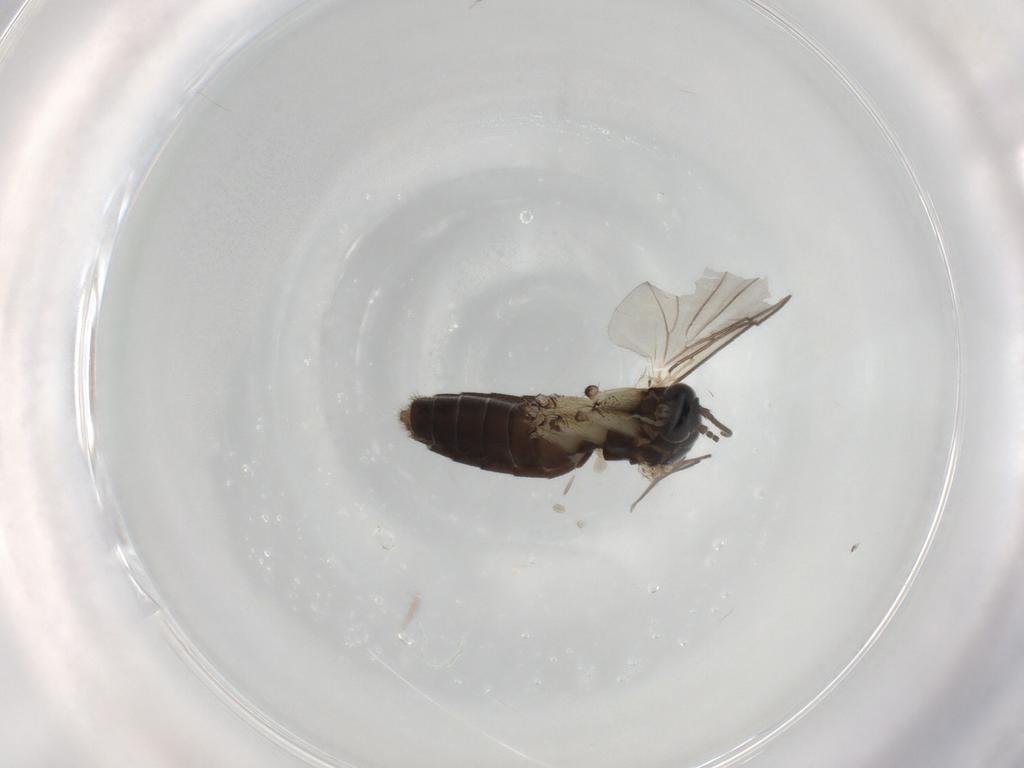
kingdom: Animalia
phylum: Arthropoda
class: Insecta
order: Diptera
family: Mycetophilidae
